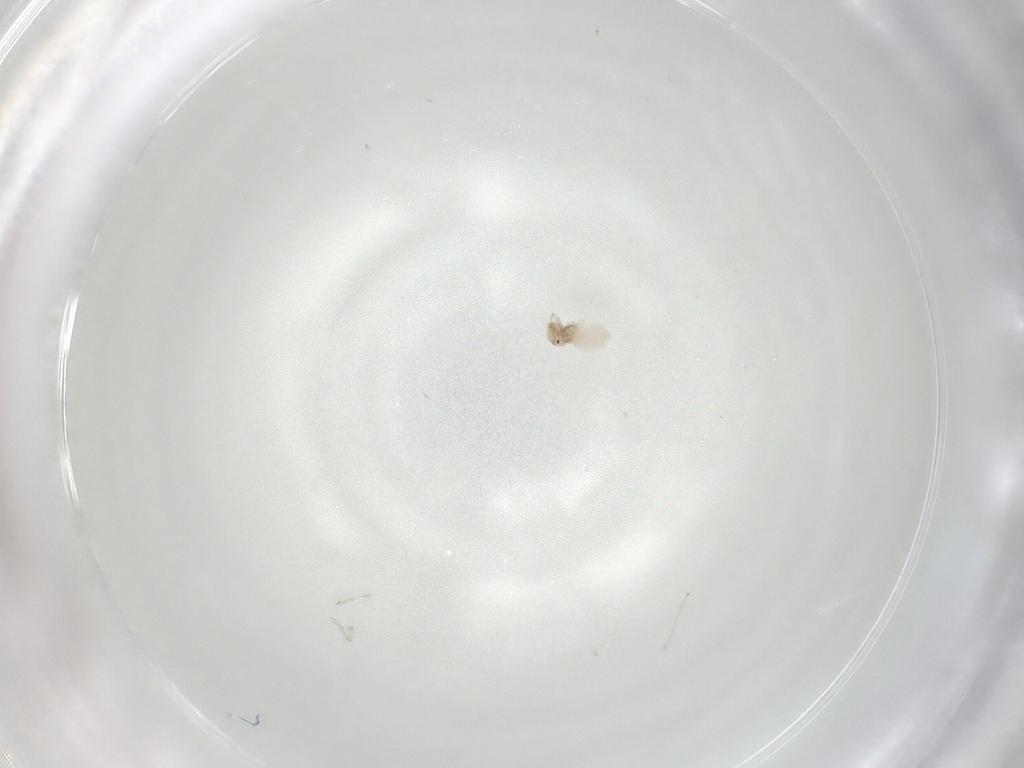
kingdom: Animalia
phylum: Arthropoda
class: Insecta
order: Psocodea
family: Lachesillidae
